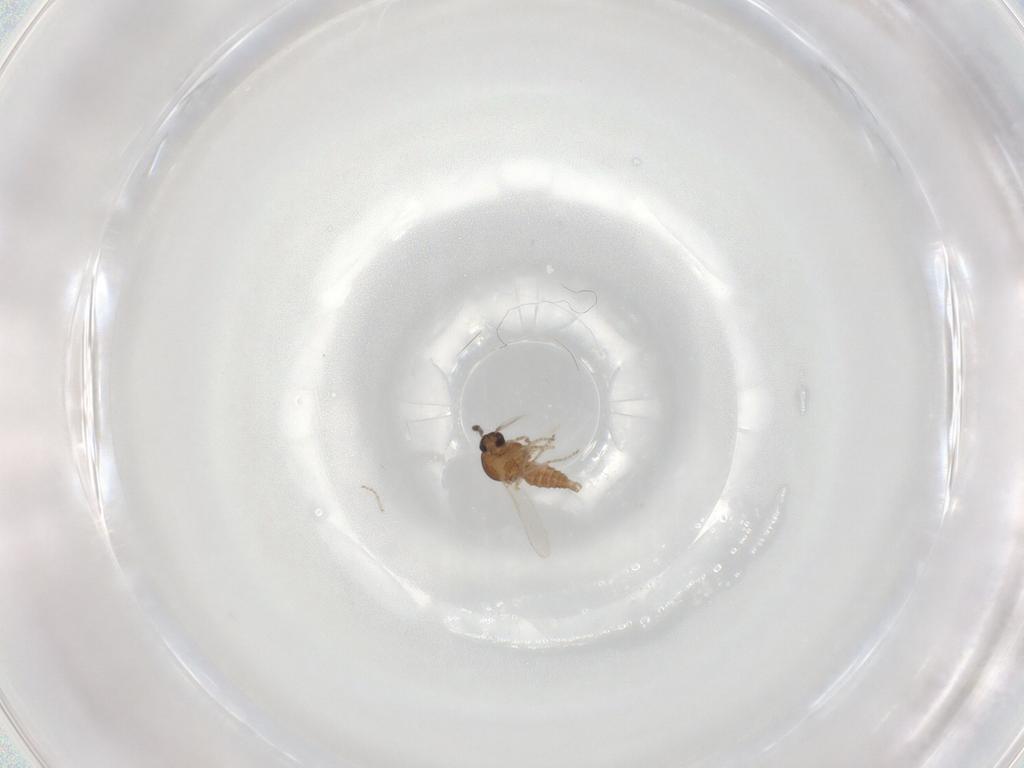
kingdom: Animalia
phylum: Arthropoda
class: Insecta
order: Diptera
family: Ceratopogonidae
